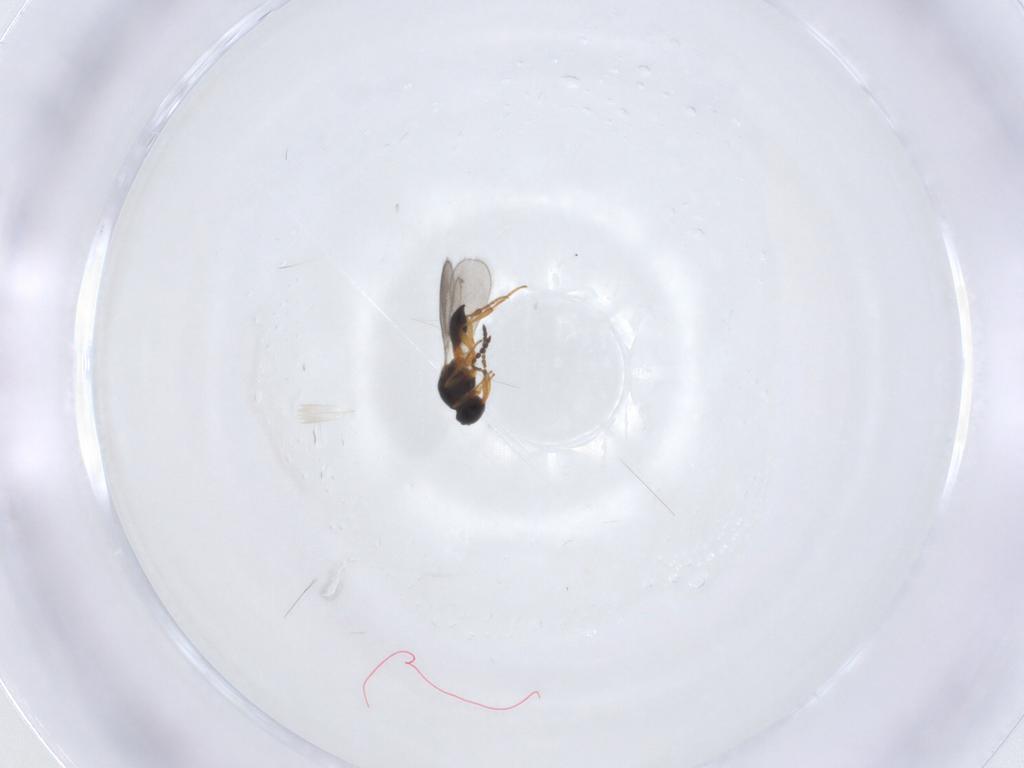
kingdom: Animalia
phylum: Arthropoda
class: Insecta
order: Hymenoptera
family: Platygastridae
